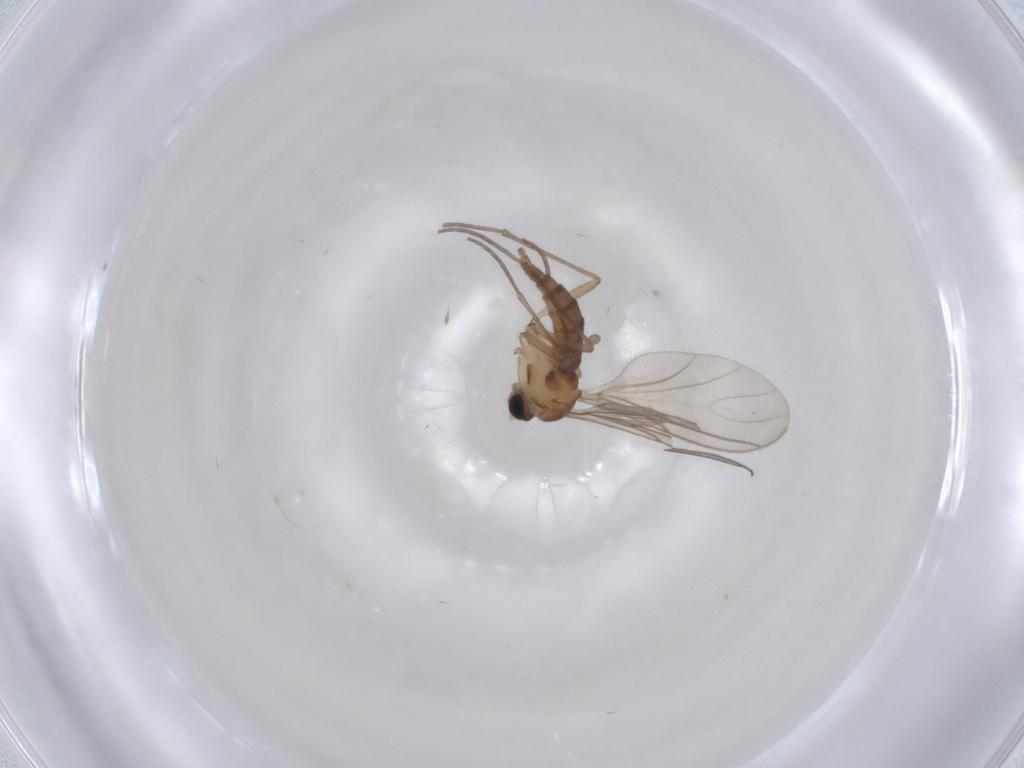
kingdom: Animalia
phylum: Arthropoda
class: Insecta
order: Diptera
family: Sciaridae
